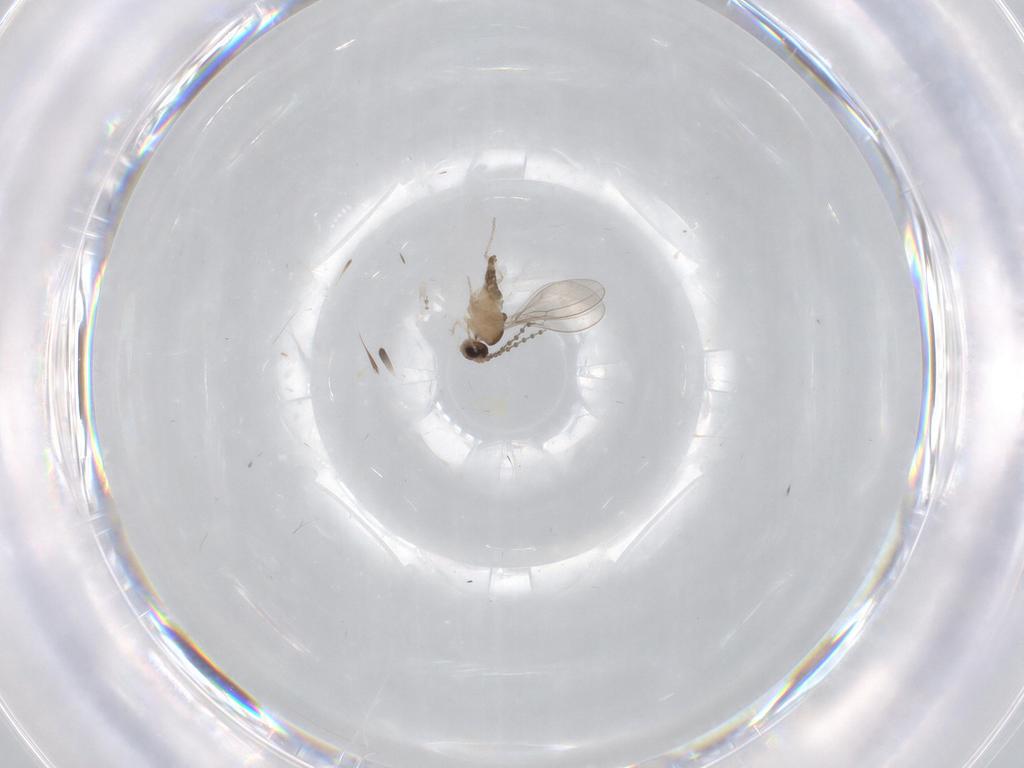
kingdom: Animalia
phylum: Arthropoda
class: Insecta
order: Diptera
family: Cecidomyiidae
